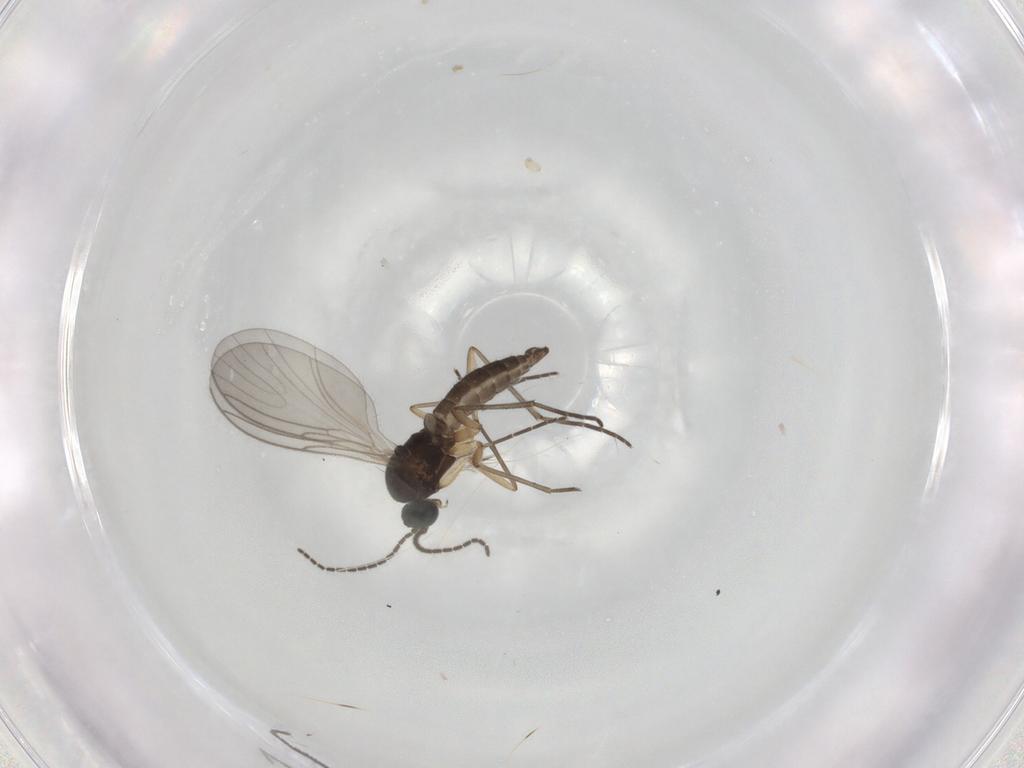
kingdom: Animalia
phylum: Arthropoda
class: Insecta
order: Diptera
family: Mycetophilidae
